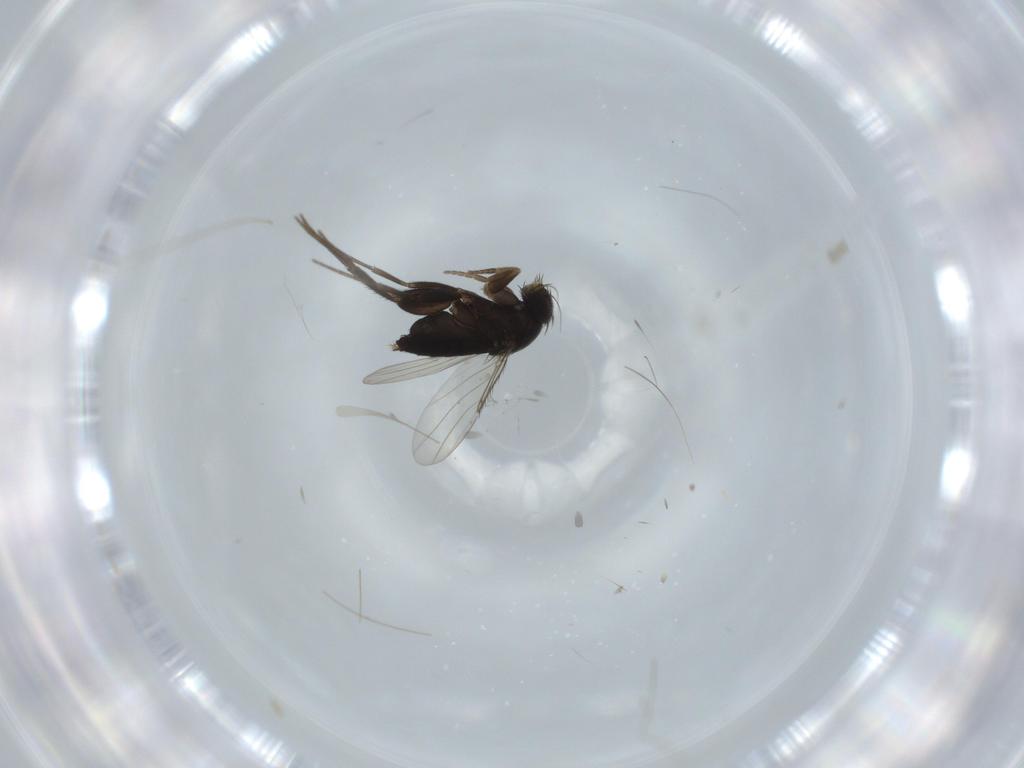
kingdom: Animalia
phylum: Arthropoda
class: Insecta
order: Diptera
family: Phoridae
